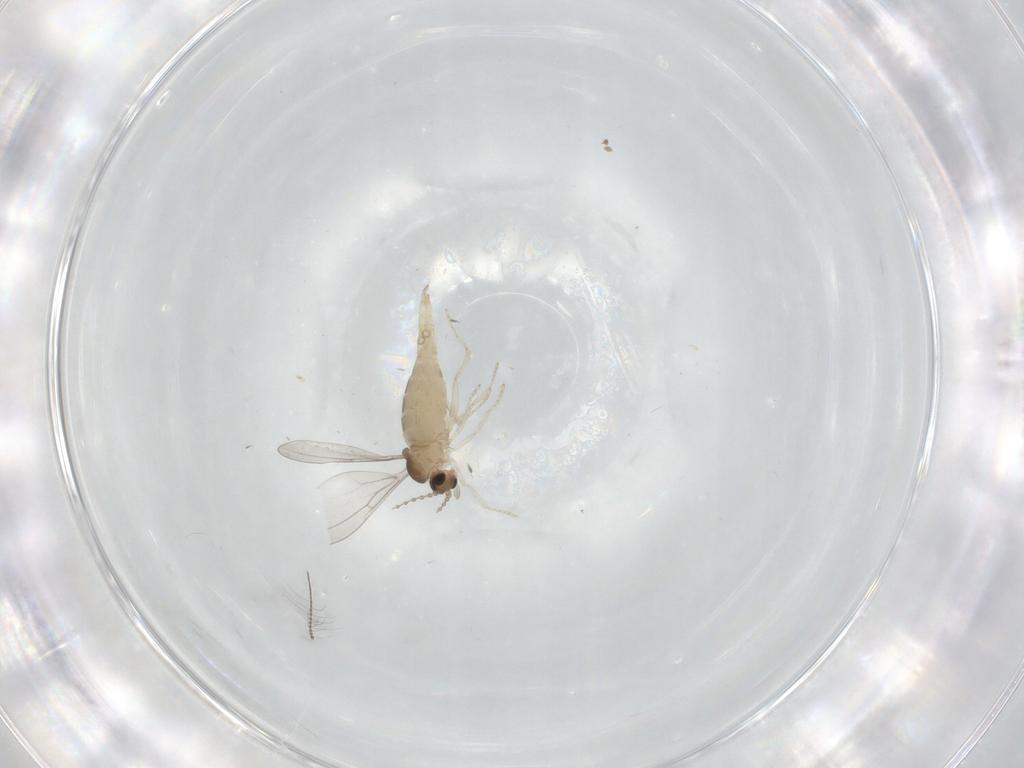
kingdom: Animalia
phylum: Arthropoda
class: Insecta
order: Diptera
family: Cecidomyiidae
